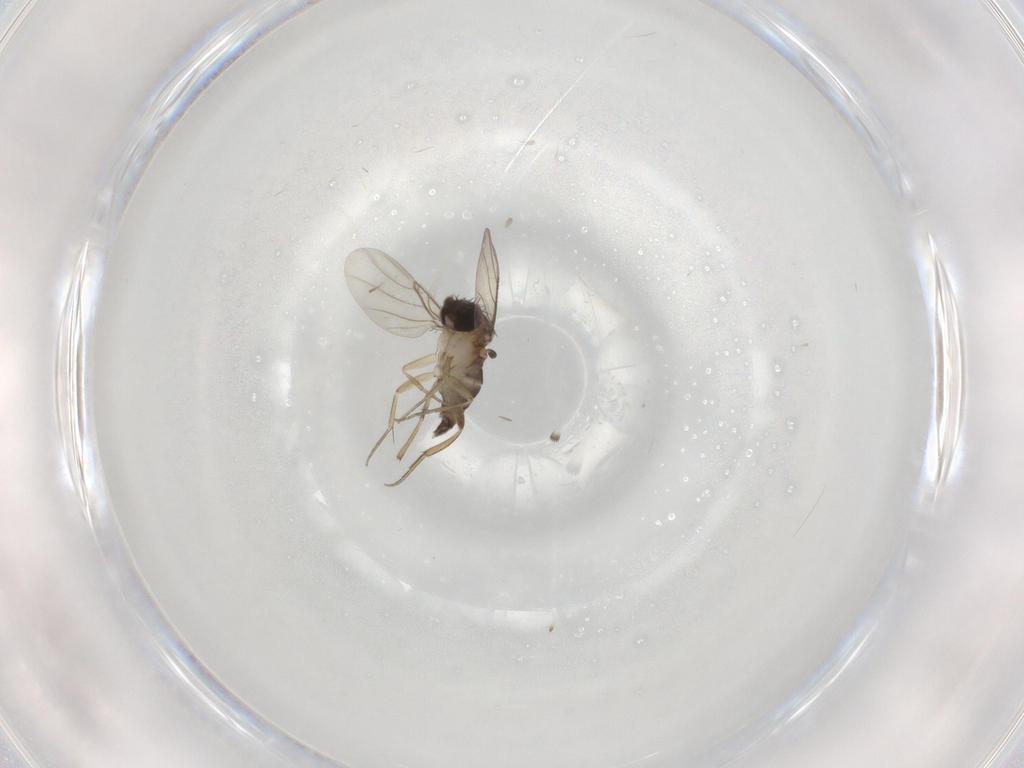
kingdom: Animalia
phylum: Arthropoda
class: Insecta
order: Diptera
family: Phoridae
